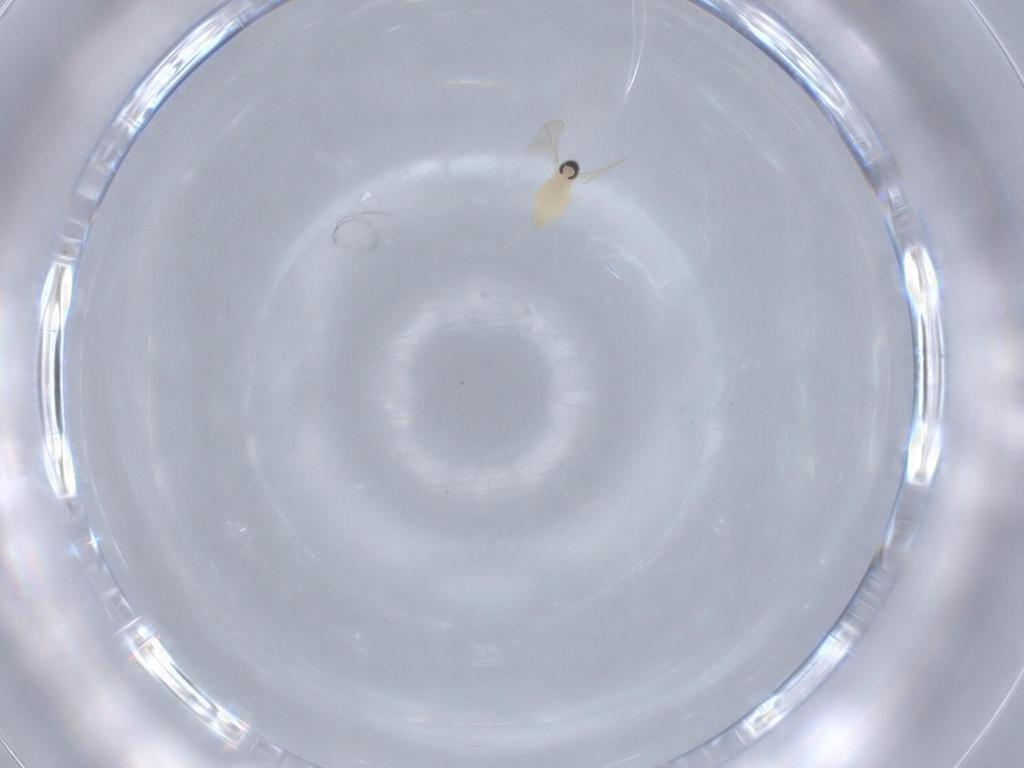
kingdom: Animalia
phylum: Arthropoda
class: Insecta
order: Diptera
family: Cecidomyiidae
